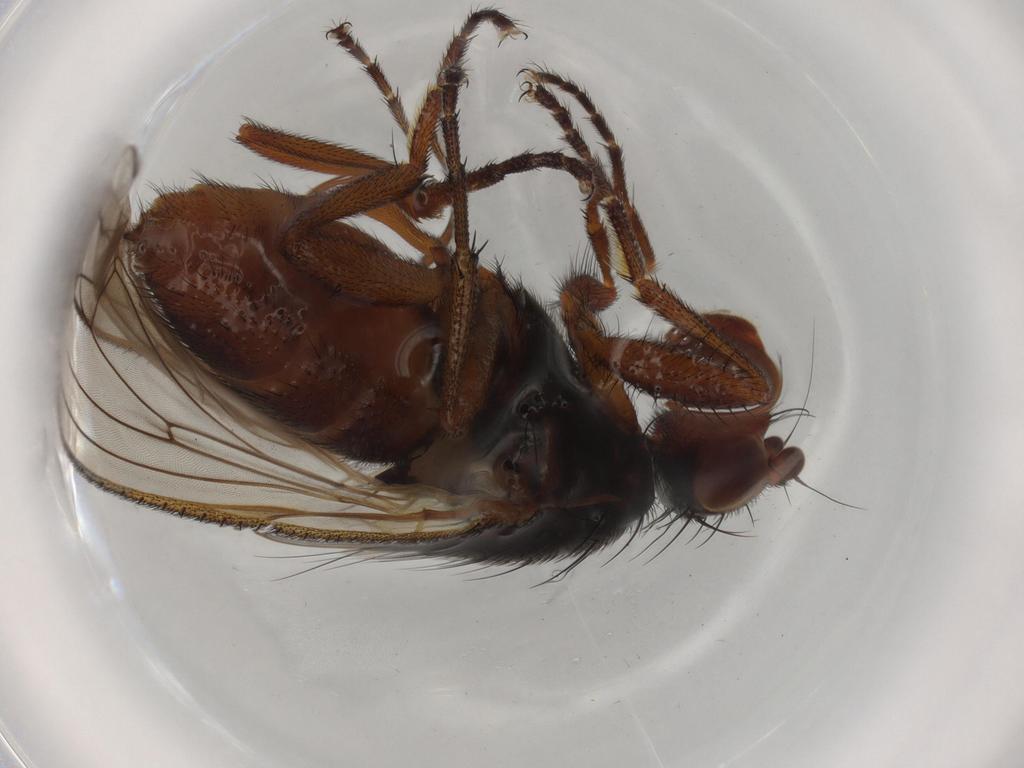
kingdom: Animalia
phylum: Arthropoda
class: Insecta
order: Diptera
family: Heleomyzidae
